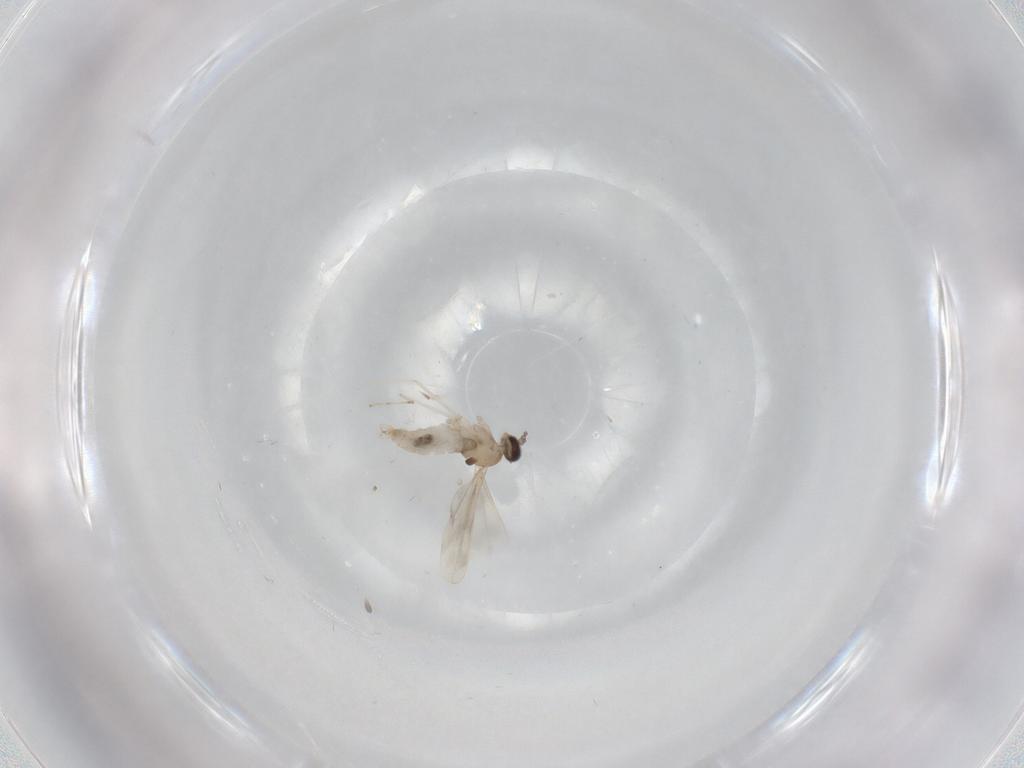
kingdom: Animalia
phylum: Arthropoda
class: Insecta
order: Diptera
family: Cecidomyiidae
